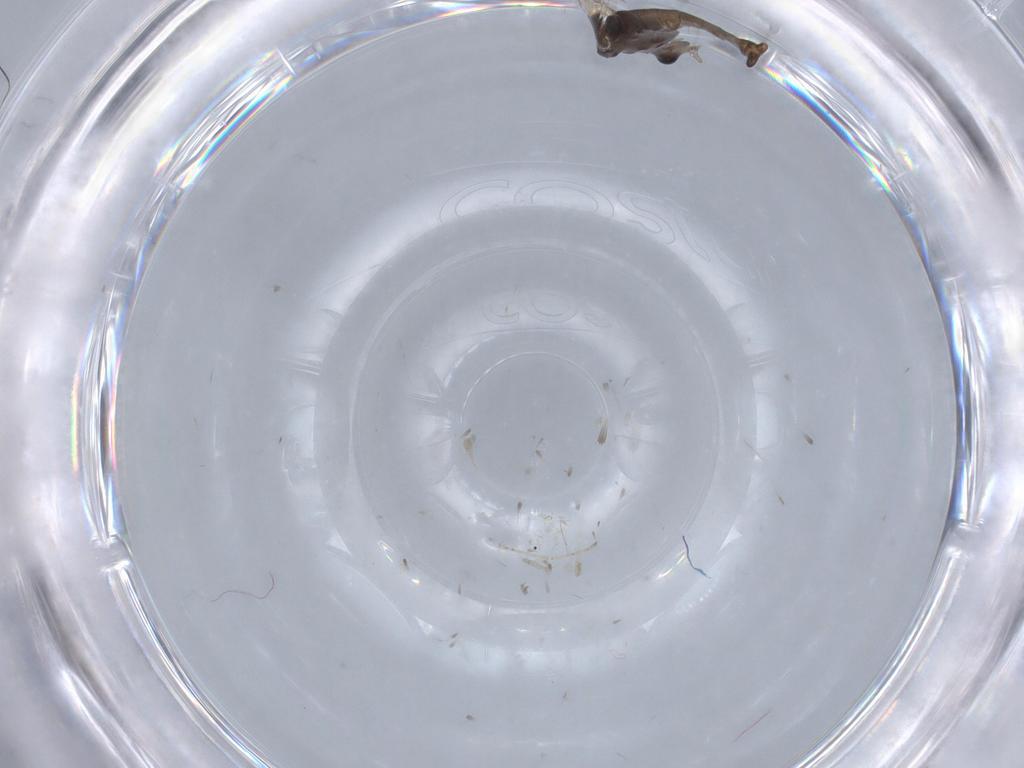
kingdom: Animalia
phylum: Arthropoda
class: Insecta
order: Diptera
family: Chironomidae
